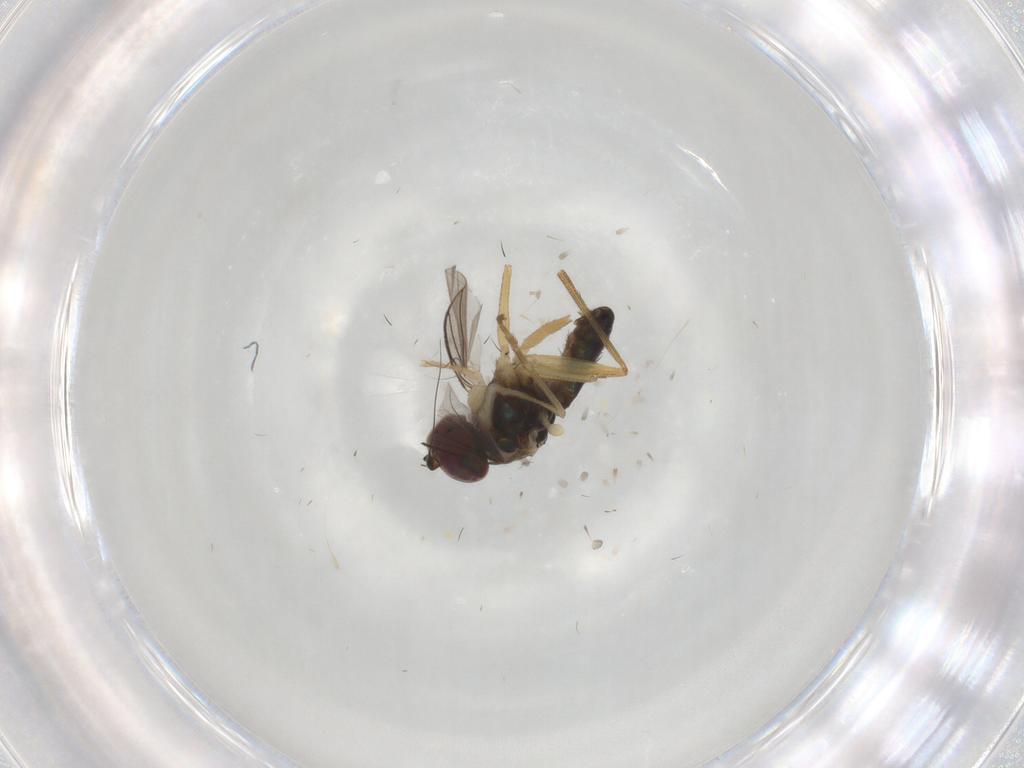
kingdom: Animalia
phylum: Arthropoda
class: Insecta
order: Diptera
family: Dolichopodidae
